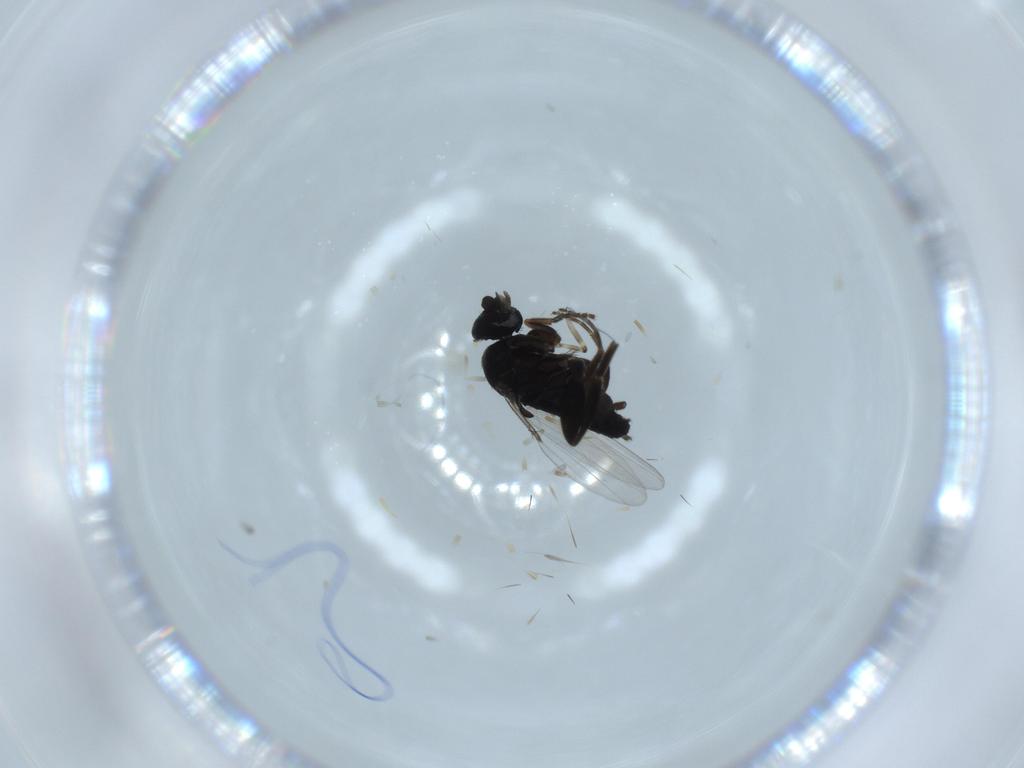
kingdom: Animalia
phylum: Arthropoda
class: Insecta
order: Diptera
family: Phoridae
